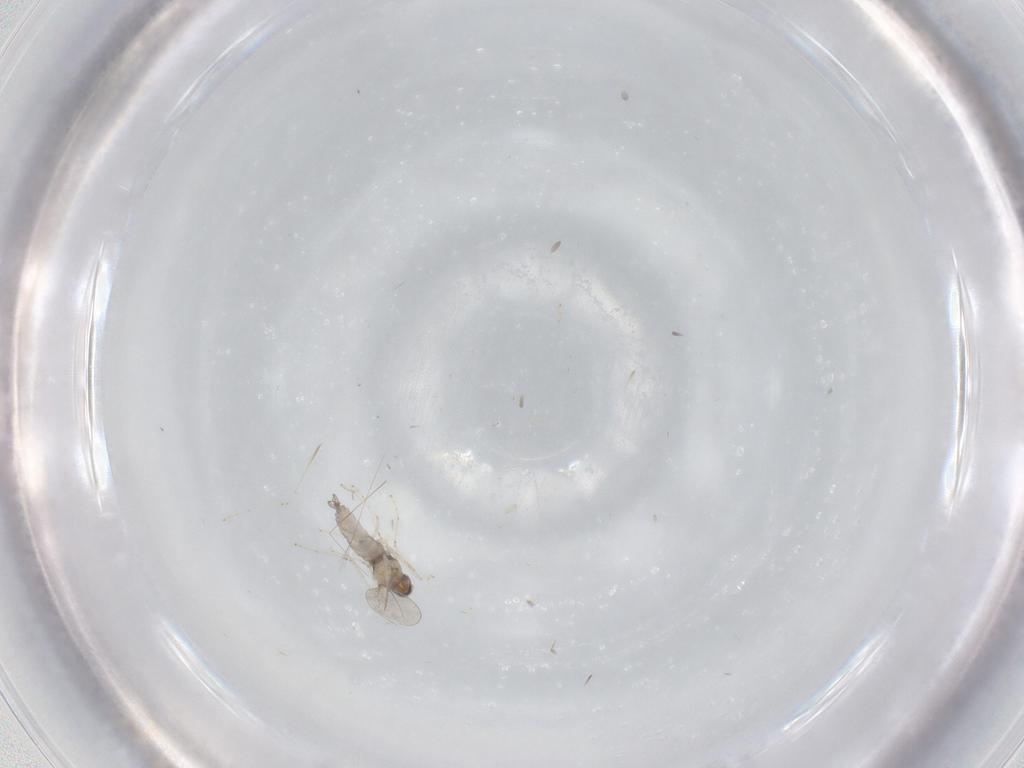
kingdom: Animalia
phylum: Arthropoda
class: Insecta
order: Diptera
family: Cecidomyiidae
